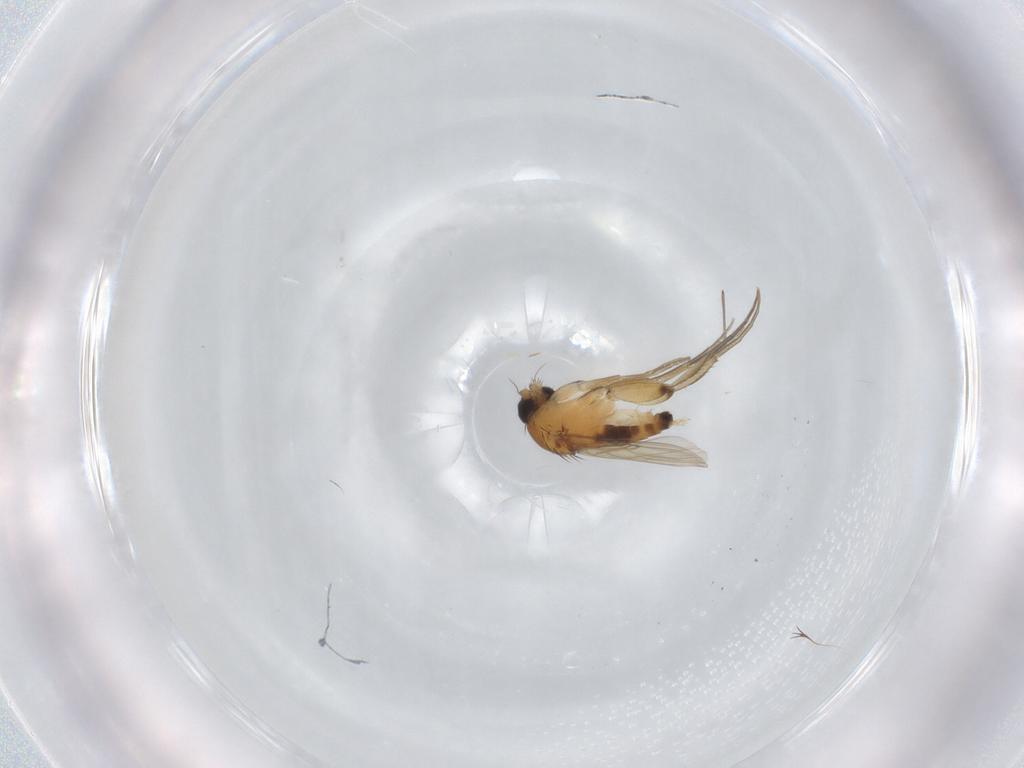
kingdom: Animalia
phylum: Arthropoda
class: Insecta
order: Diptera
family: Phoridae
